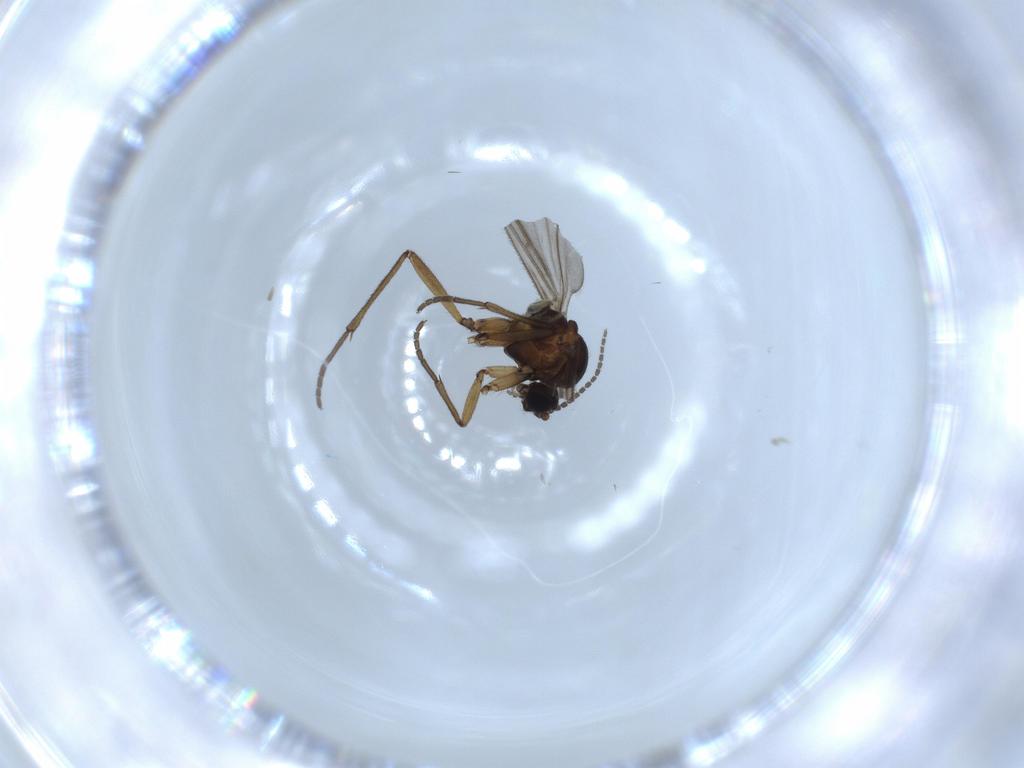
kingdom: Animalia
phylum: Arthropoda
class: Insecta
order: Diptera
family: Sciaridae
